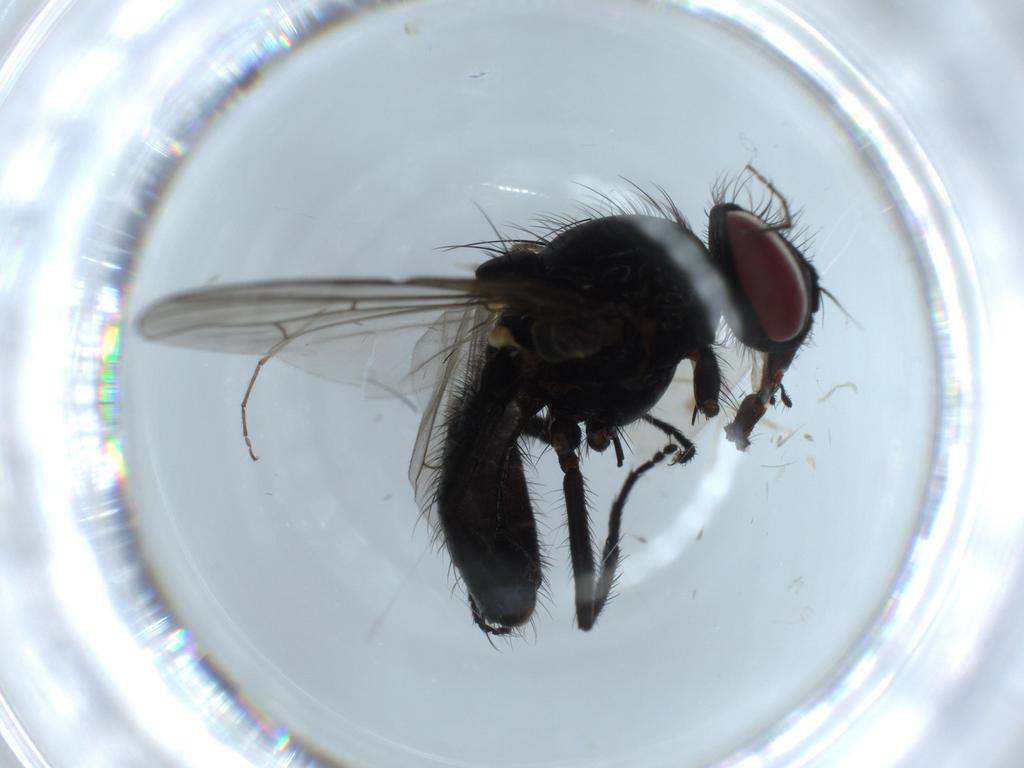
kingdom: Animalia
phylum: Arthropoda
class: Insecta
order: Diptera
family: Fannia
